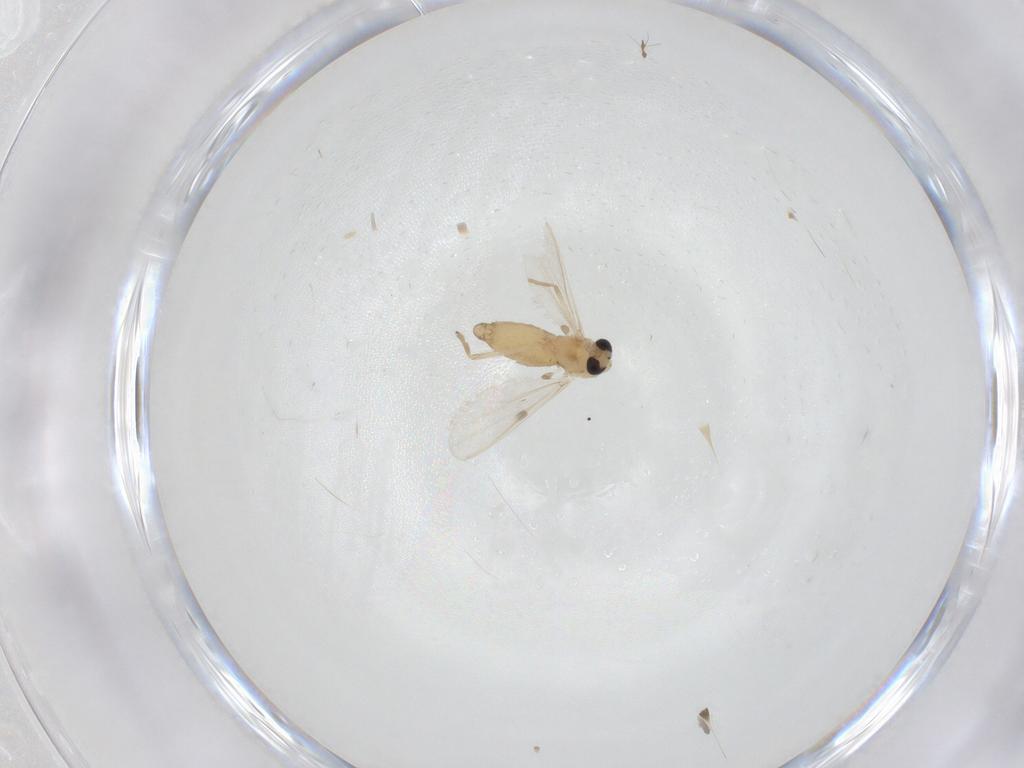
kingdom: Animalia
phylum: Arthropoda
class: Insecta
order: Diptera
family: Chironomidae
